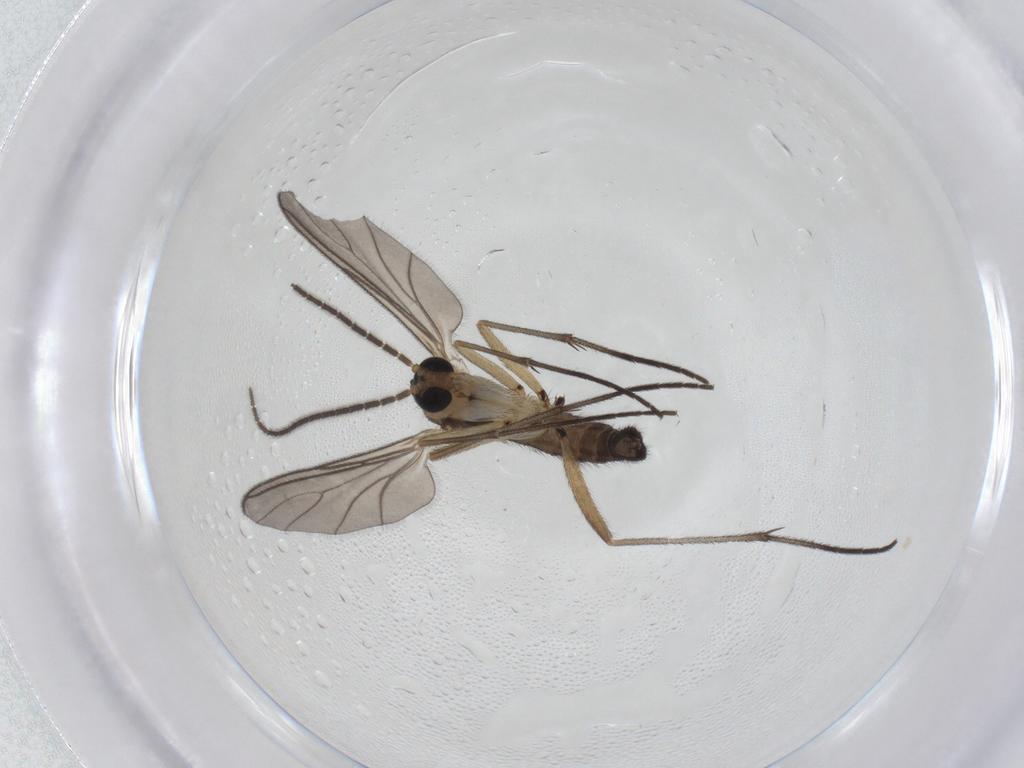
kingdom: Animalia
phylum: Arthropoda
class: Insecta
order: Diptera
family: Sciaridae
